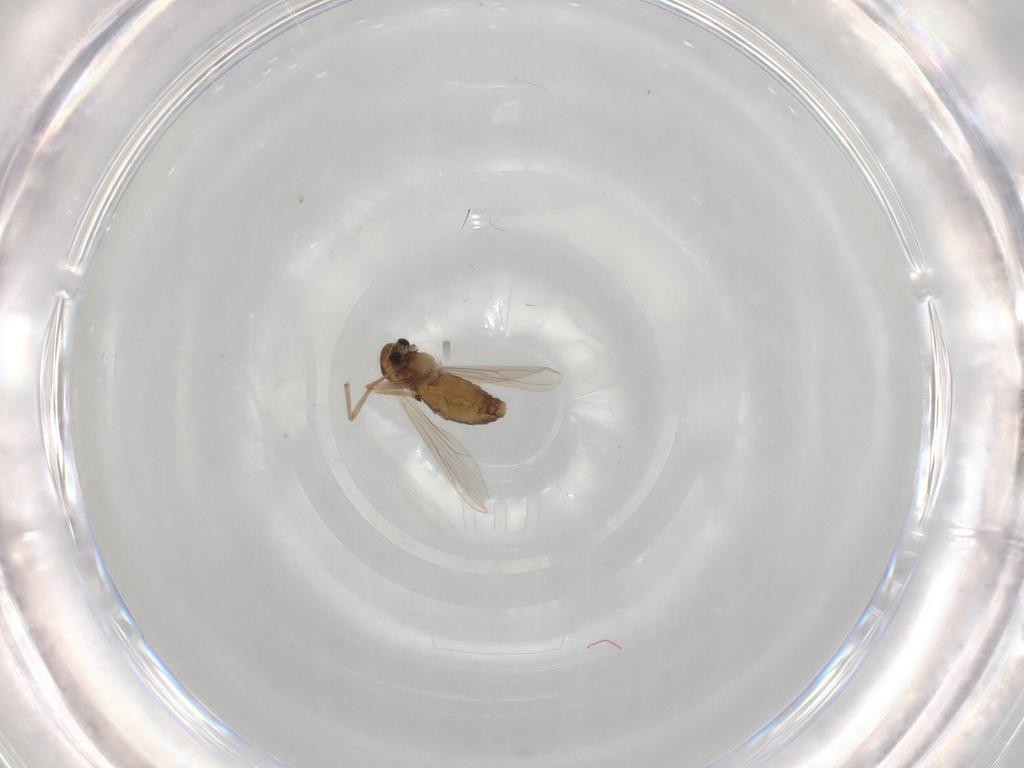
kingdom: Animalia
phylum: Arthropoda
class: Insecta
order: Diptera
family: Chironomidae
